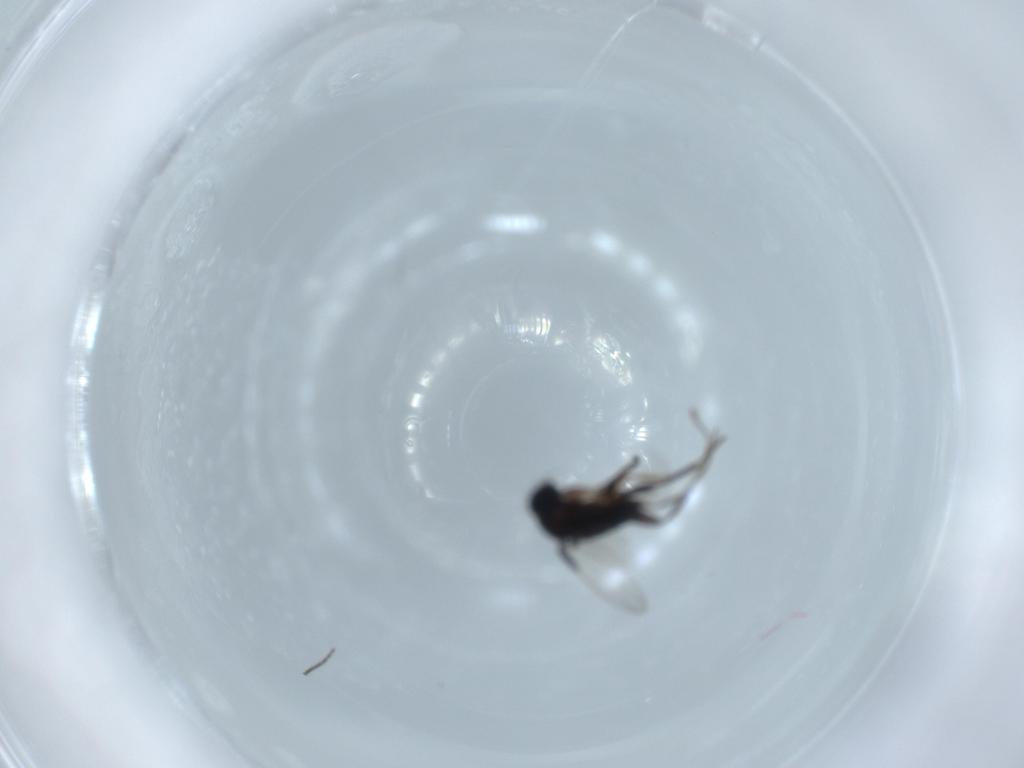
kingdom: Animalia
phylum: Arthropoda
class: Insecta
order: Diptera
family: Phoridae
